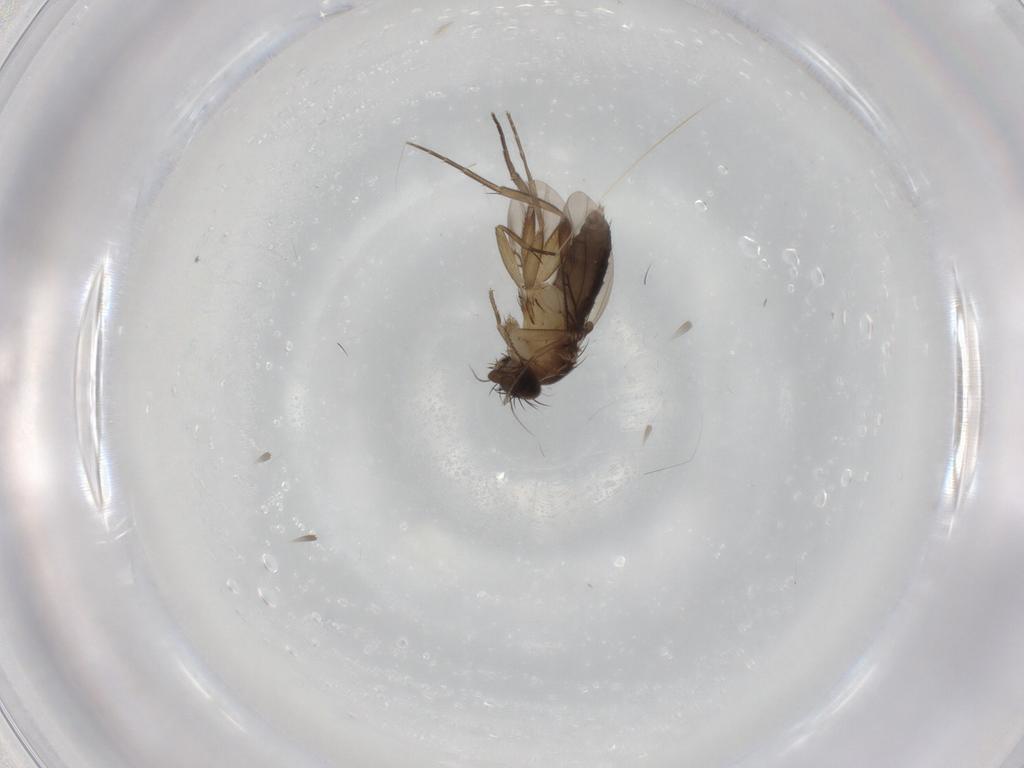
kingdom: Animalia
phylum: Arthropoda
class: Insecta
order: Diptera
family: Phoridae
